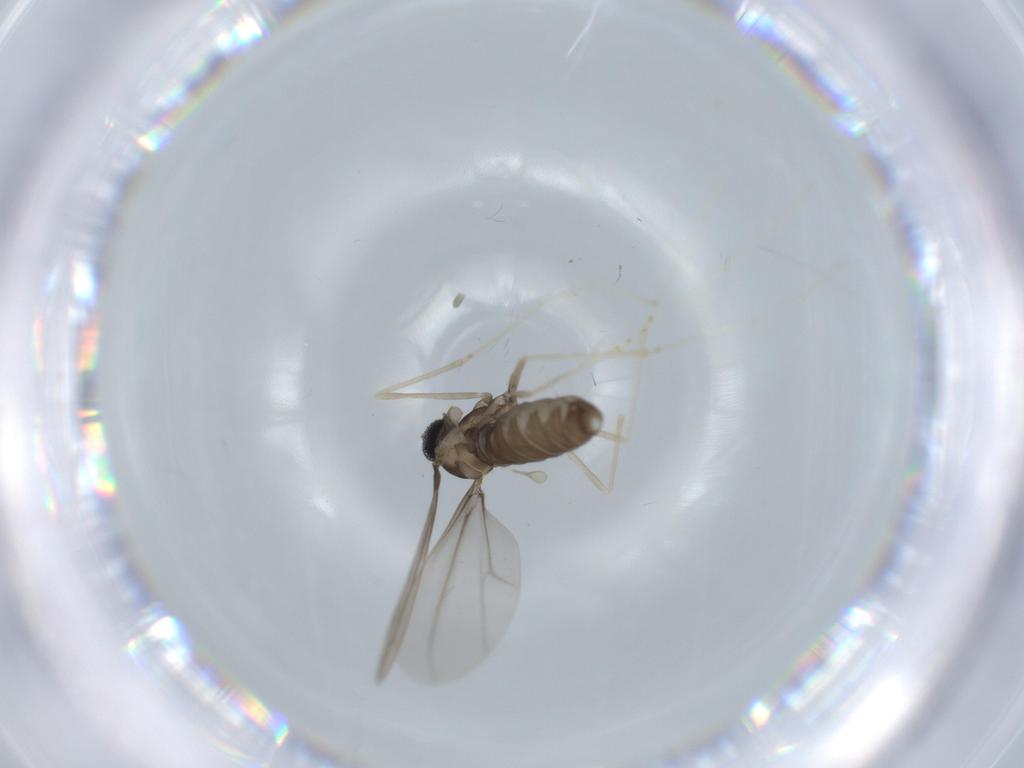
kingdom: Animalia
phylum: Arthropoda
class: Insecta
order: Diptera
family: Cecidomyiidae
